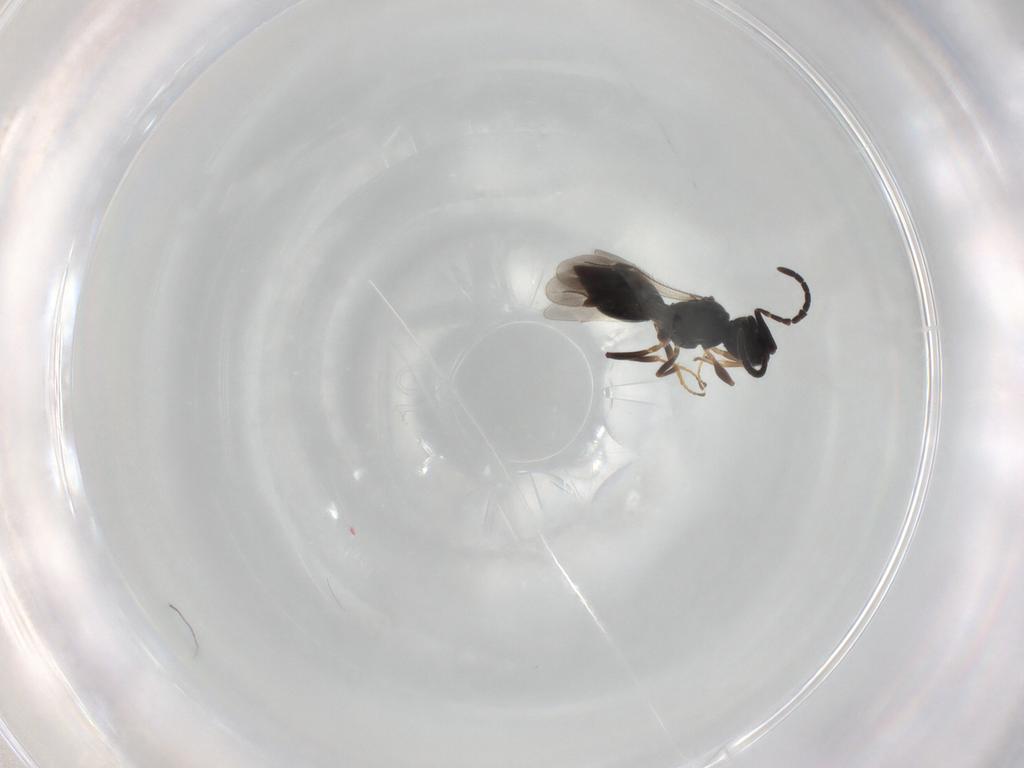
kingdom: Animalia
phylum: Arthropoda
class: Insecta
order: Hymenoptera
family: Megaspilidae
